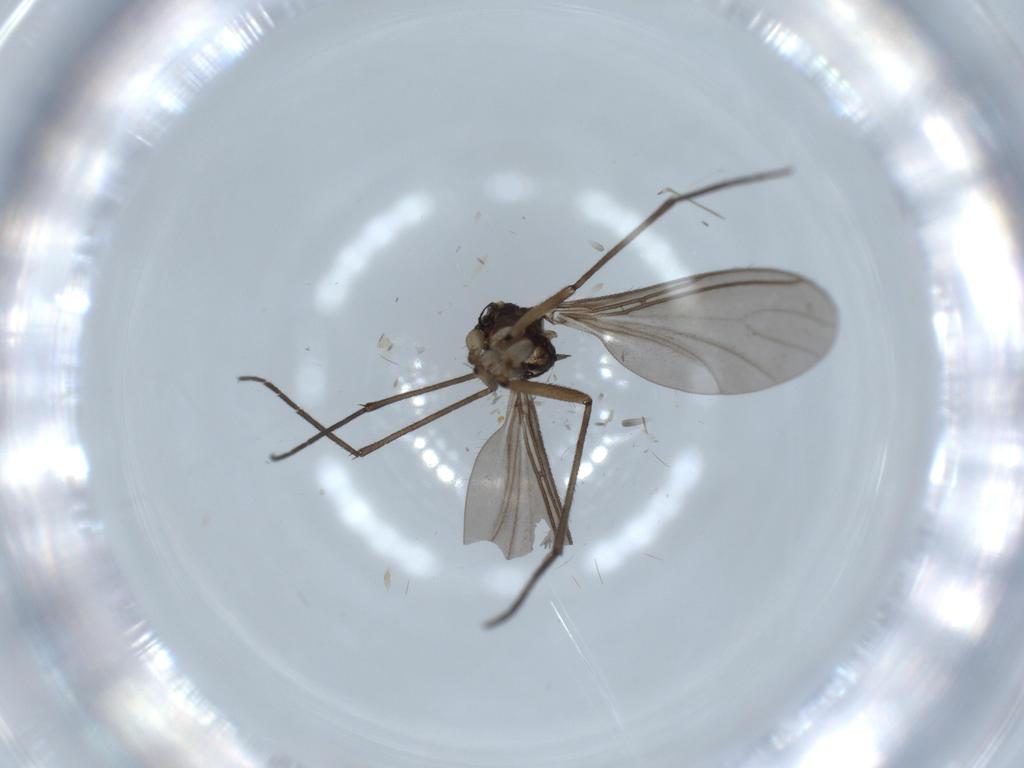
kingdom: Animalia
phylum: Arthropoda
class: Insecta
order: Diptera
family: Sciaridae
